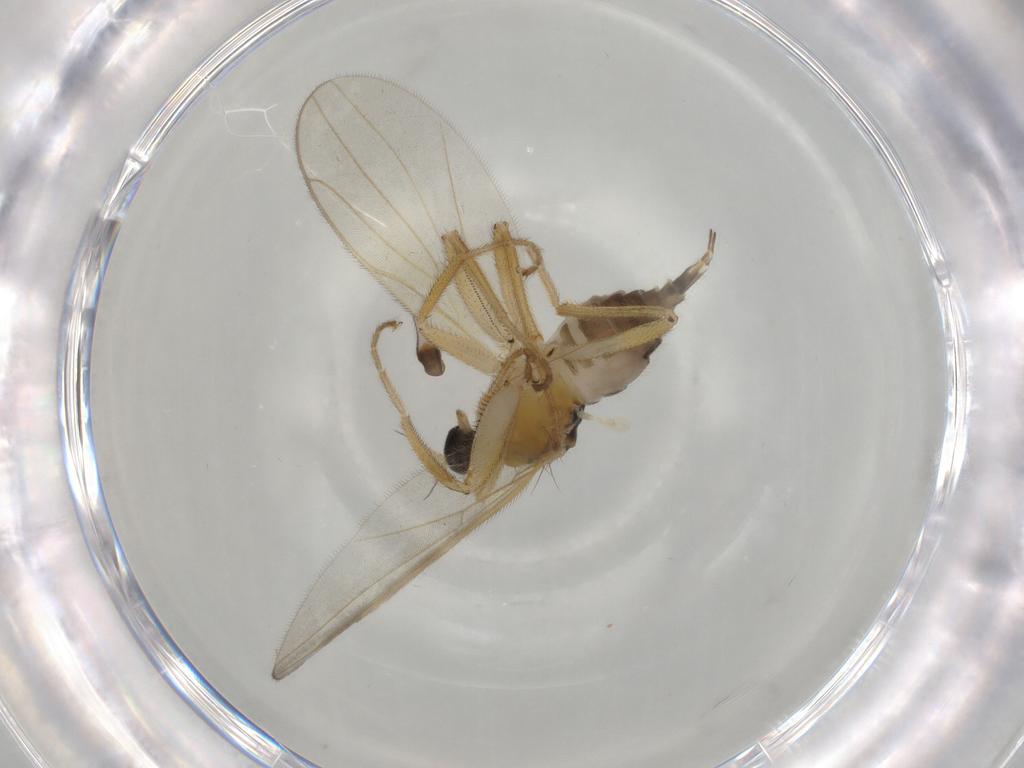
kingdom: Animalia
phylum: Arthropoda
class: Insecta
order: Diptera
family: Hybotidae
